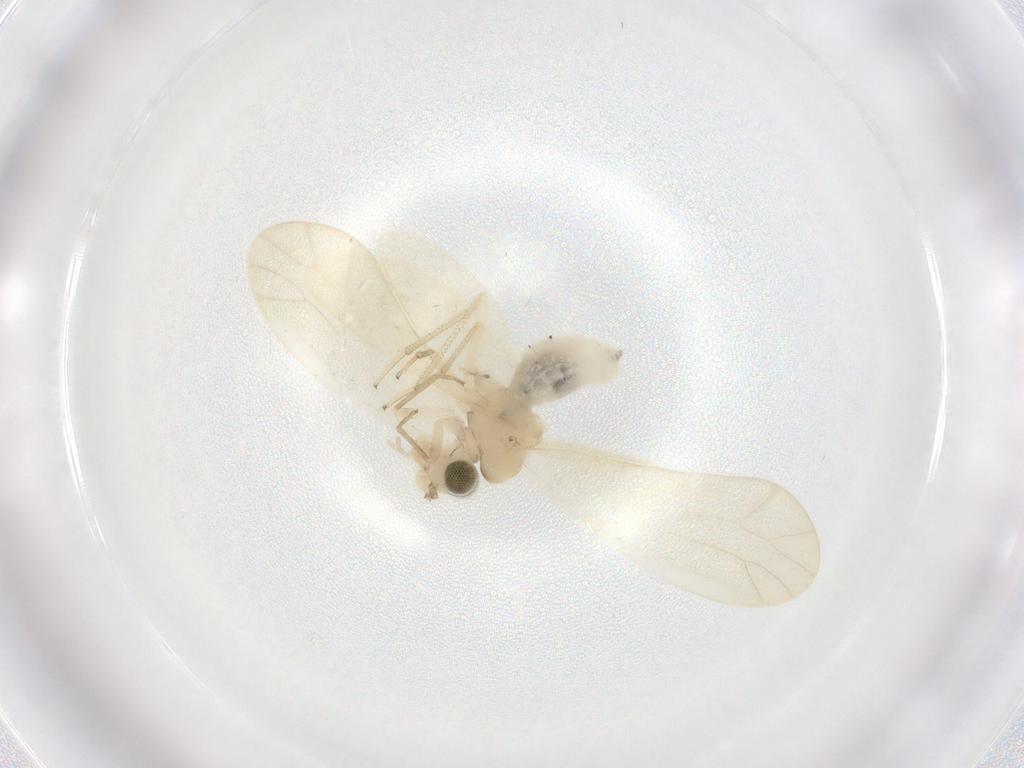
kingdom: Animalia
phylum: Arthropoda
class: Insecta
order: Psocodea
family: Caeciliusidae
